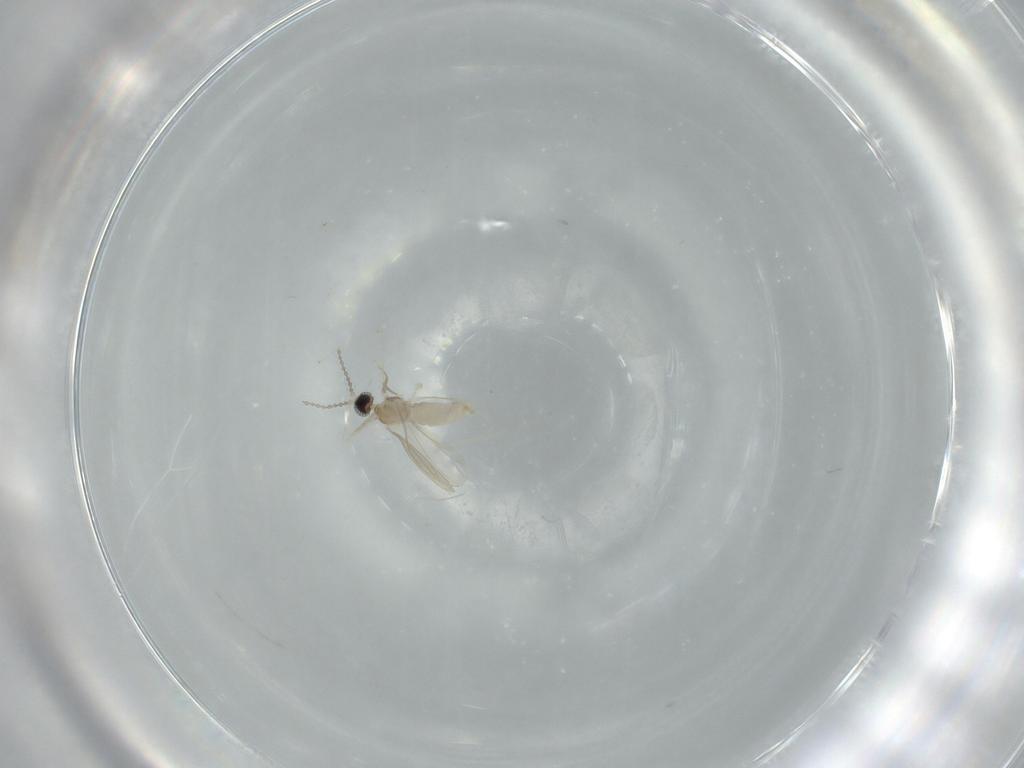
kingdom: Animalia
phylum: Arthropoda
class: Insecta
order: Diptera
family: Cecidomyiidae
